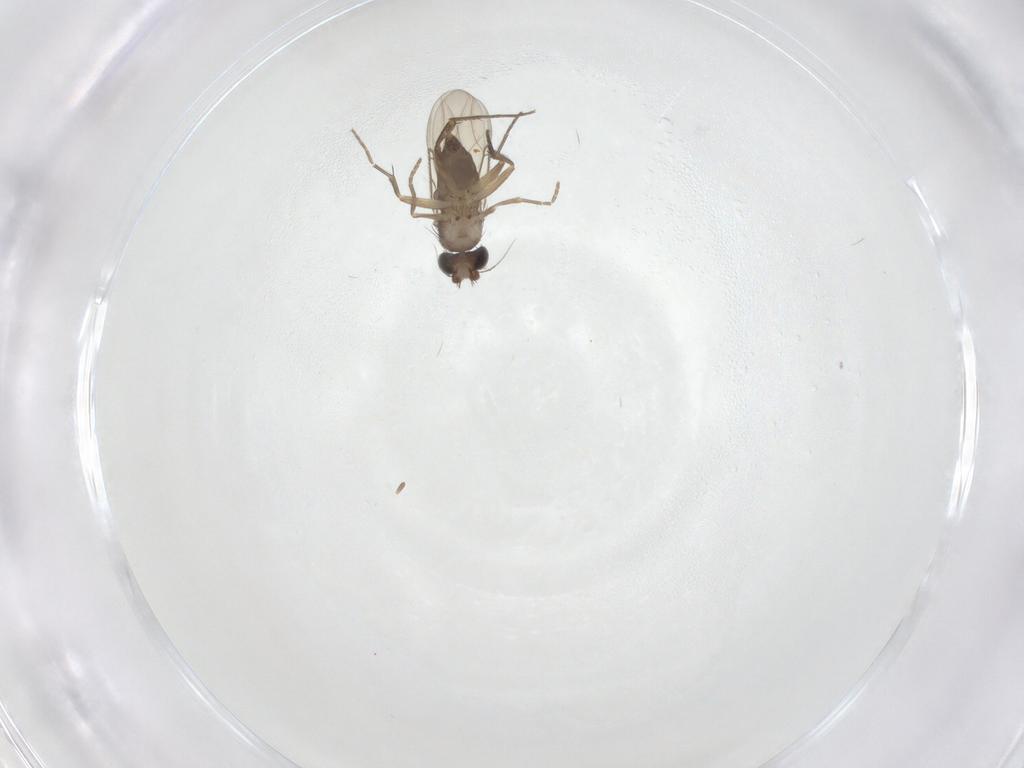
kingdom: Animalia
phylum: Arthropoda
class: Insecta
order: Diptera
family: Phoridae
